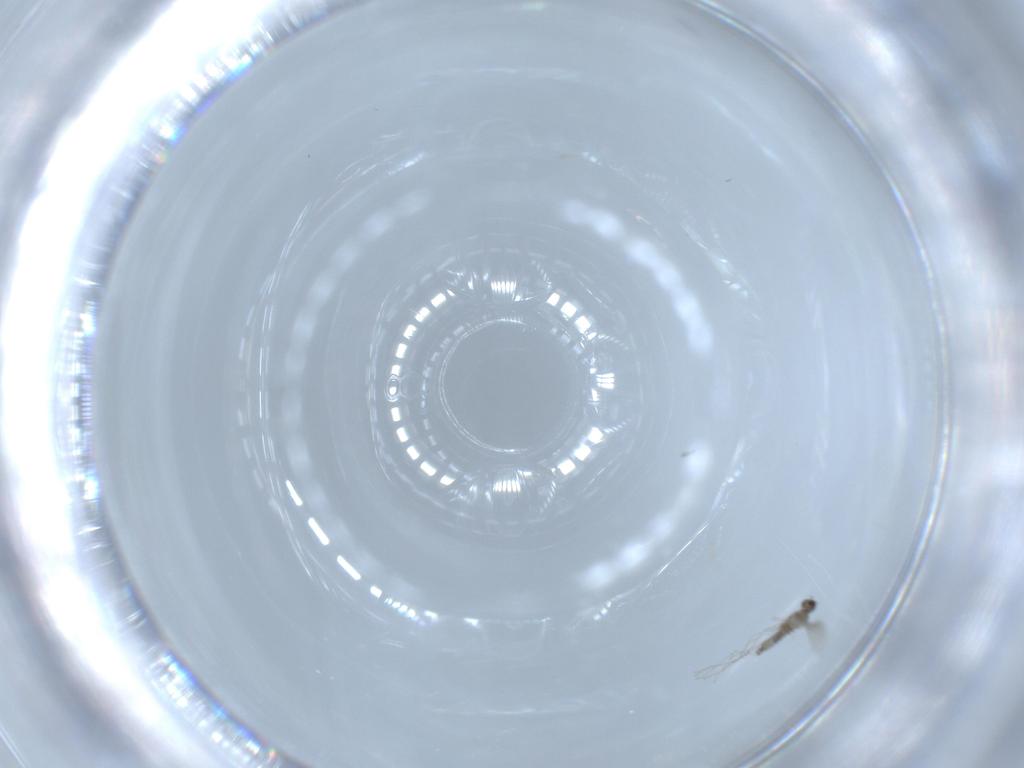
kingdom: Animalia
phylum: Arthropoda
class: Insecta
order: Diptera
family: Cecidomyiidae
